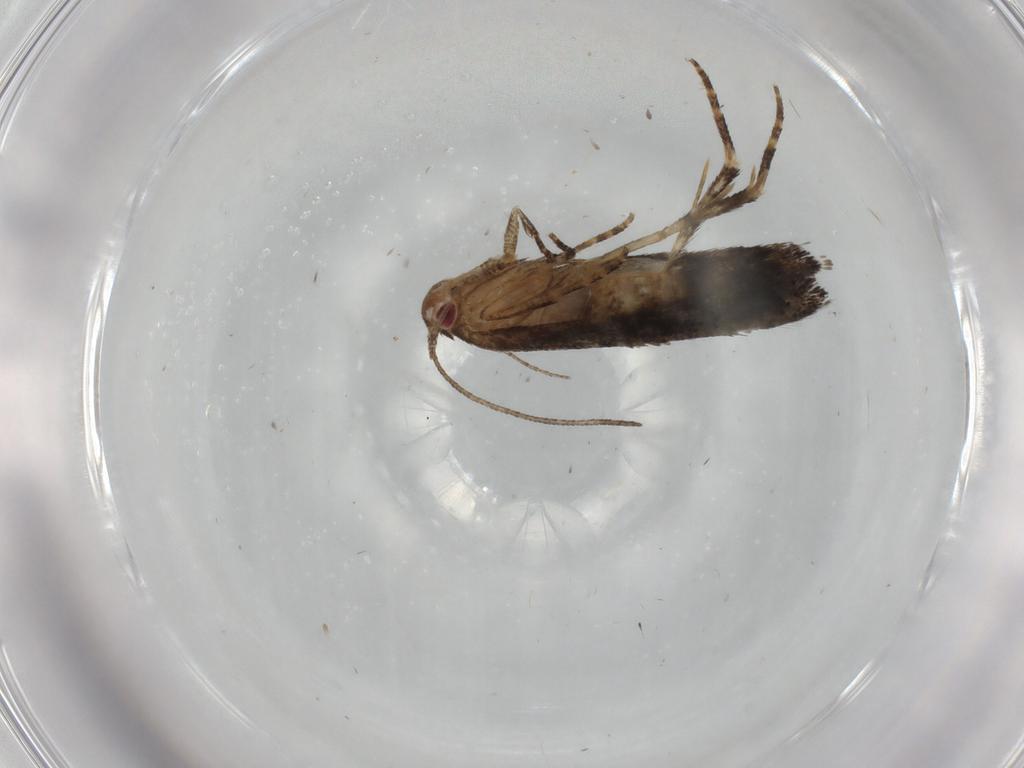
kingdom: Animalia
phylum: Arthropoda
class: Insecta
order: Lepidoptera
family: Momphidae
